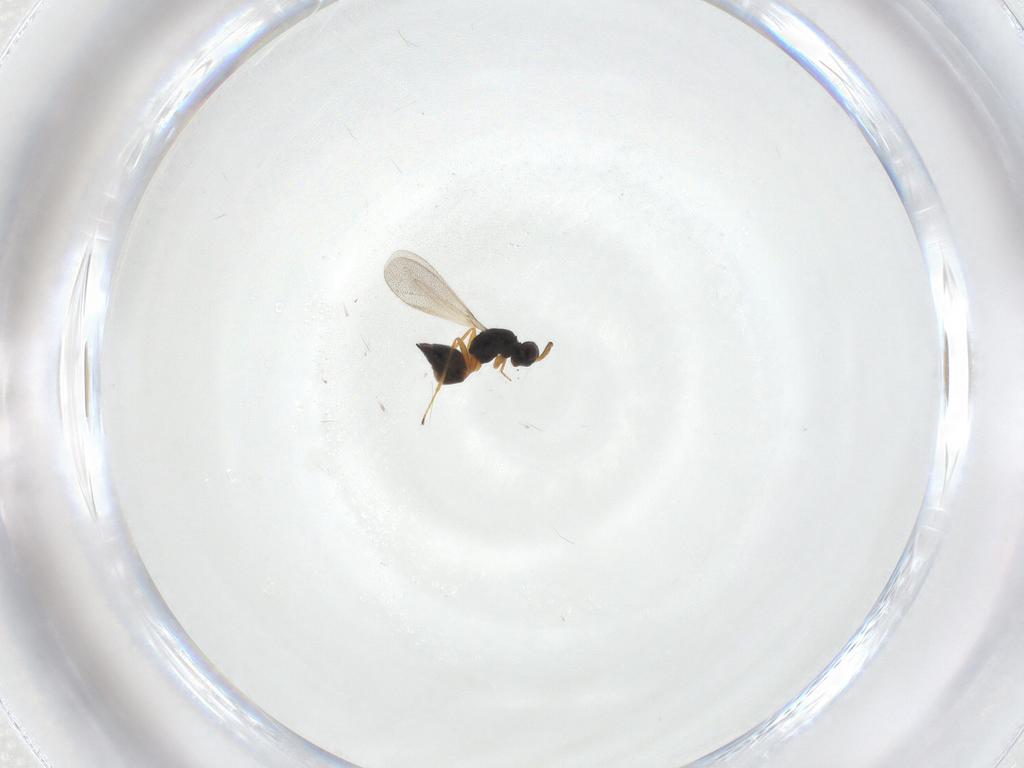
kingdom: Animalia
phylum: Arthropoda
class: Insecta
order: Hymenoptera
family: Mymaridae
